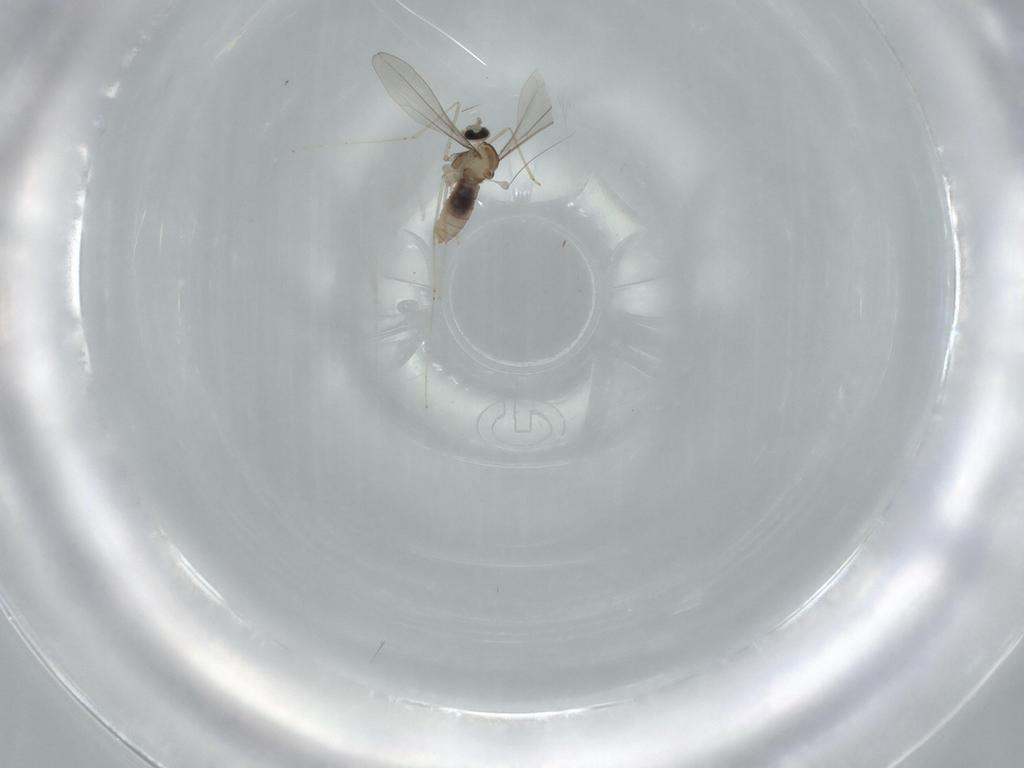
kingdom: Animalia
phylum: Arthropoda
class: Insecta
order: Diptera
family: Cecidomyiidae
